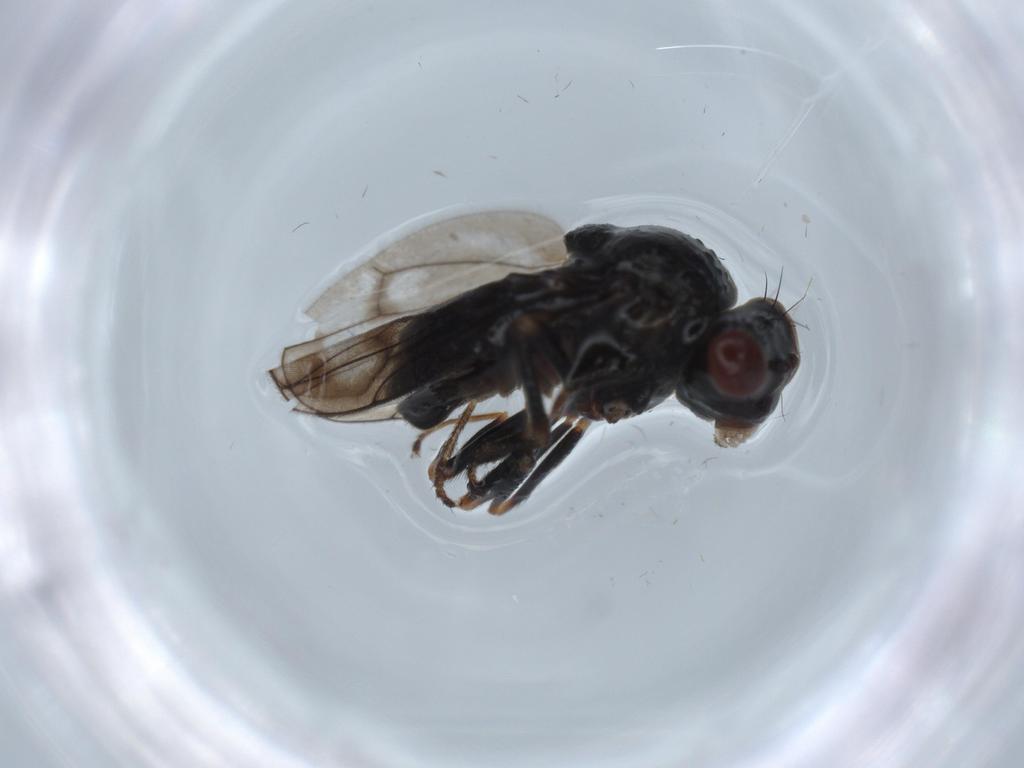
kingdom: Animalia
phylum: Arthropoda
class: Insecta
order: Diptera
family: Ephydridae
